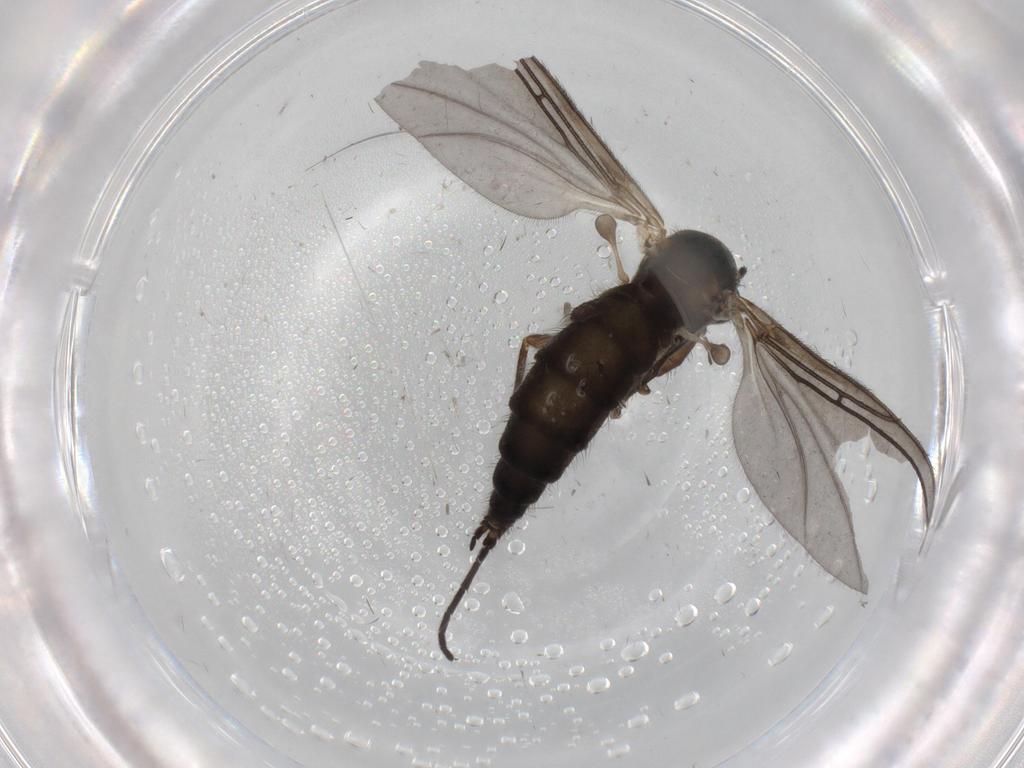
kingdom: Animalia
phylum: Arthropoda
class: Insecta
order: Diptera
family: Sciaridae
